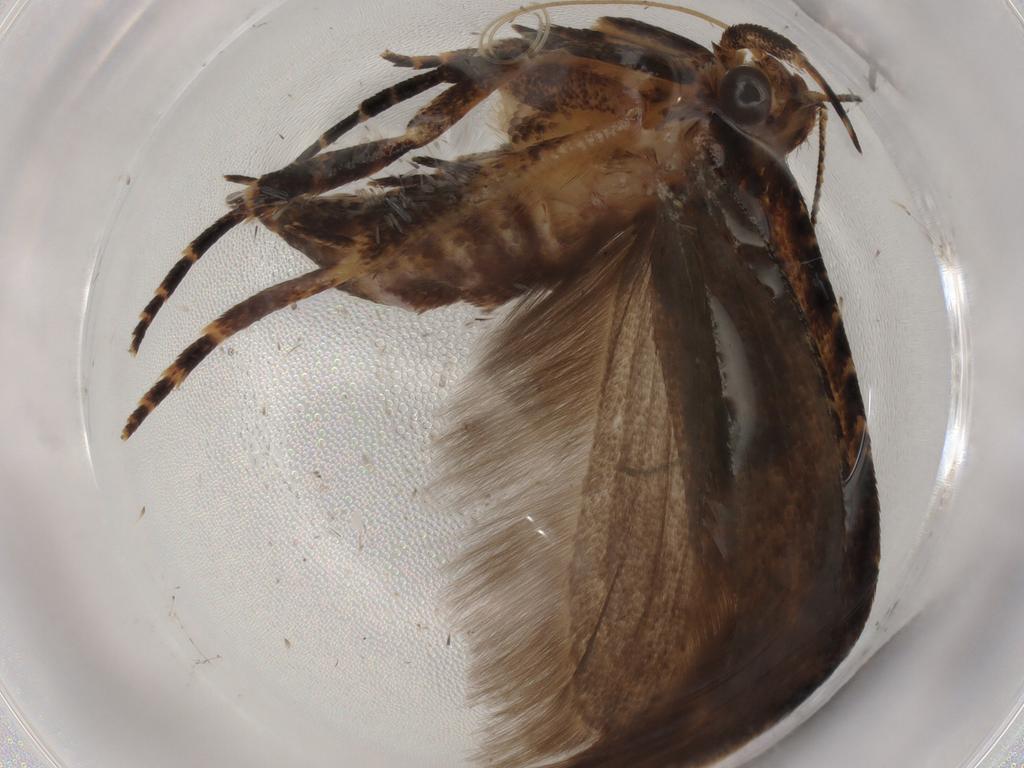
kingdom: Animalia
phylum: Arthropoda
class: Insecta
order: Lepidoptera
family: Gelechiidae
